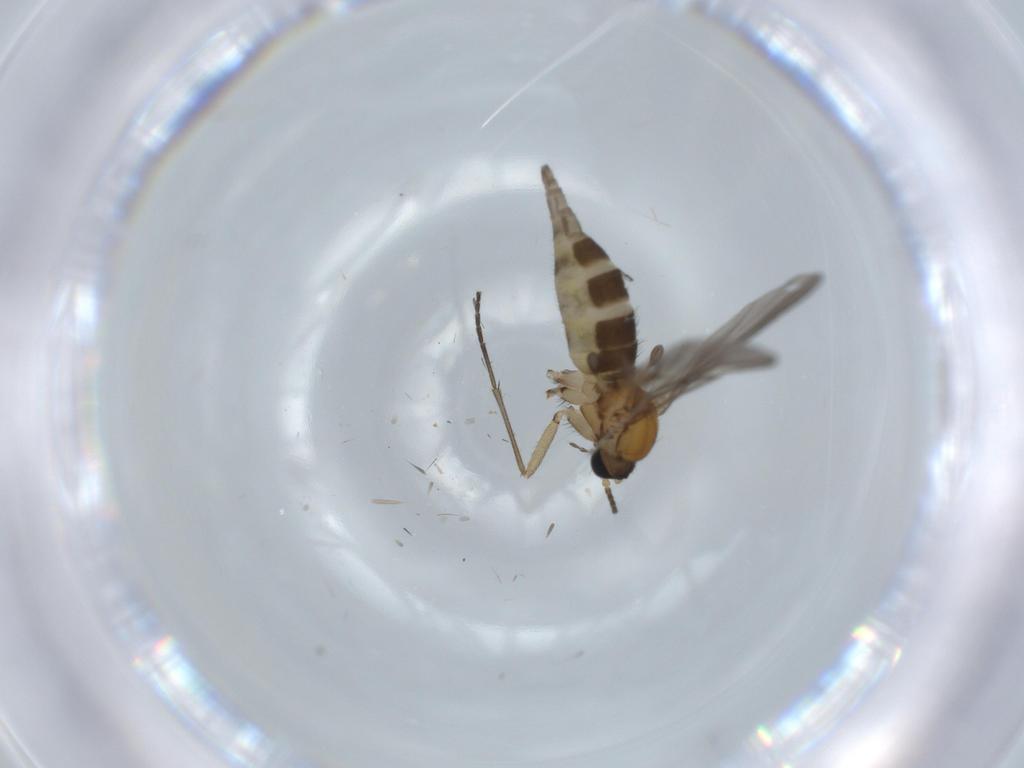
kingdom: Animalia
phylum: Arthropoda
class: Insecta
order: Diptera
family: Sciaridae
